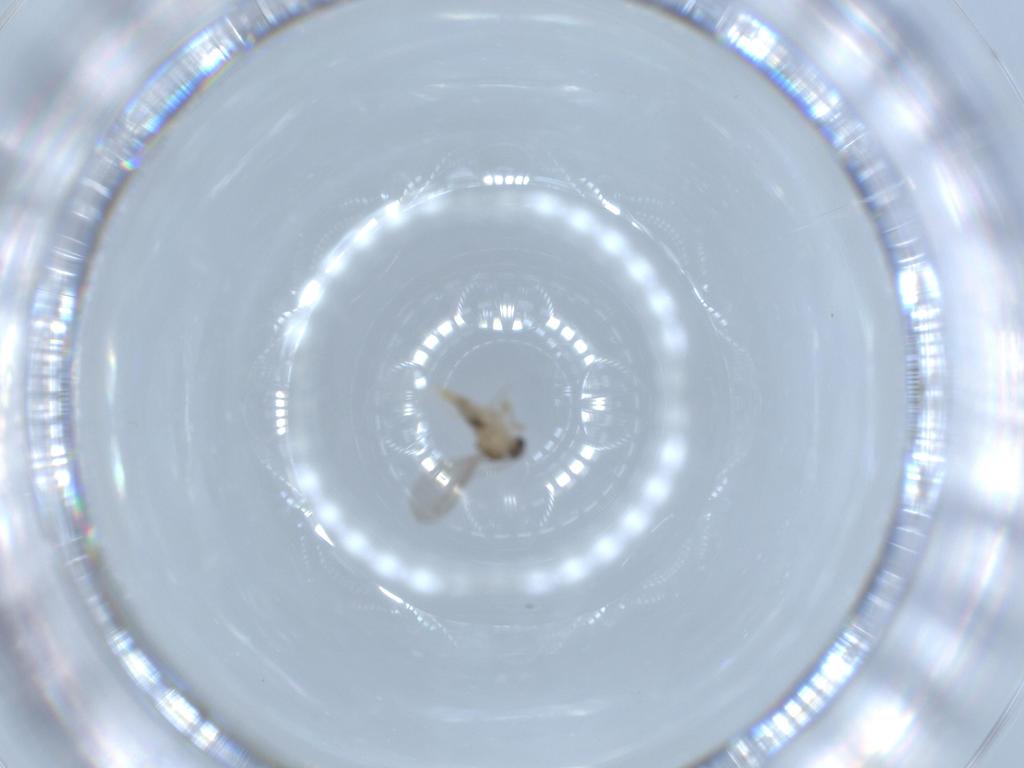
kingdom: Animalia
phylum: Arthropoda
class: Insecta
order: Diptera
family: Cecidomyiidae
